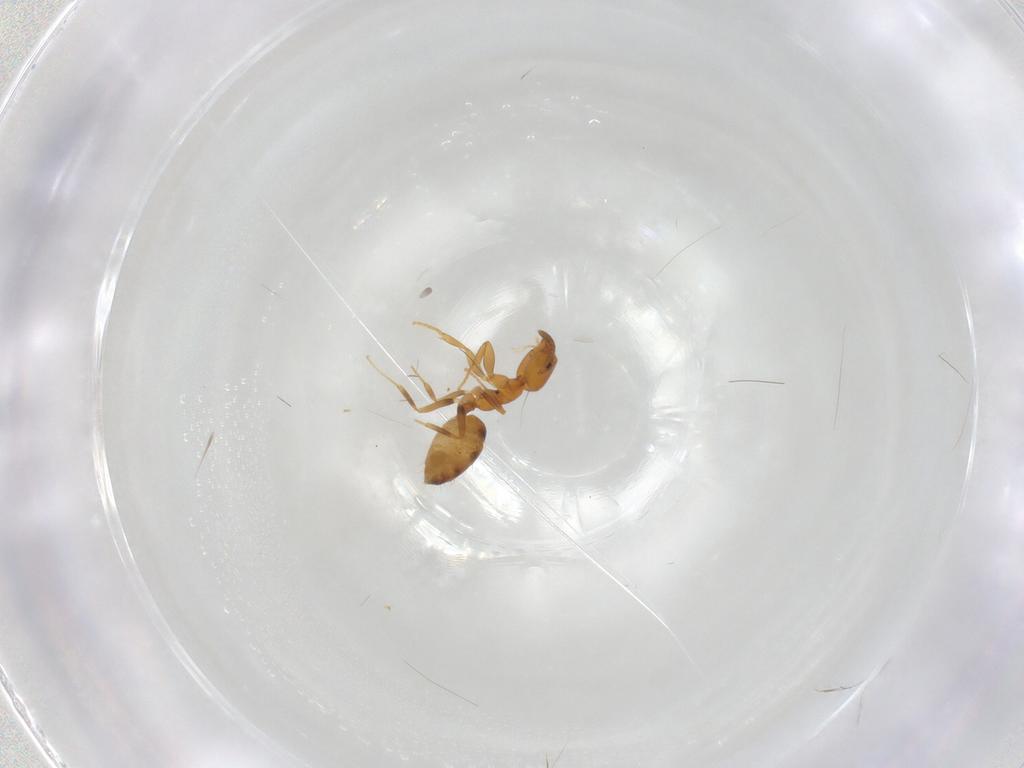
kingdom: Animalia
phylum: Arthropoda
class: Insecta
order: Hymenoptera
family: Formicidae
